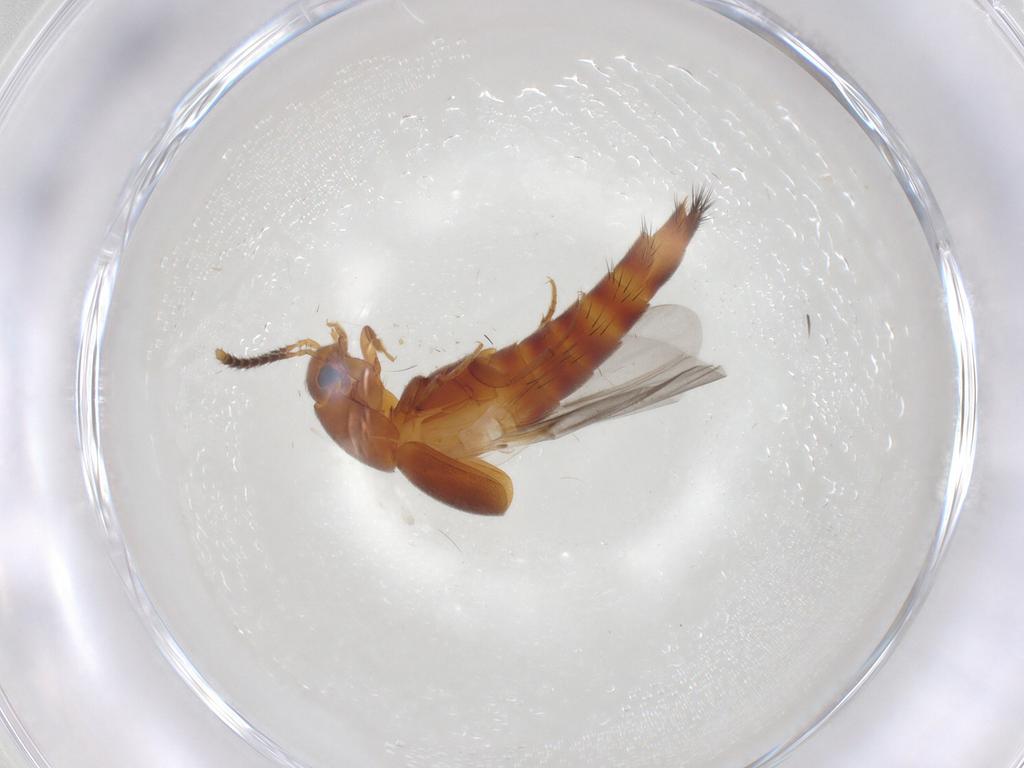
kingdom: Animalia
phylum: Arthropoda
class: Insecta
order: Coleoptera
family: Staphylinidae
